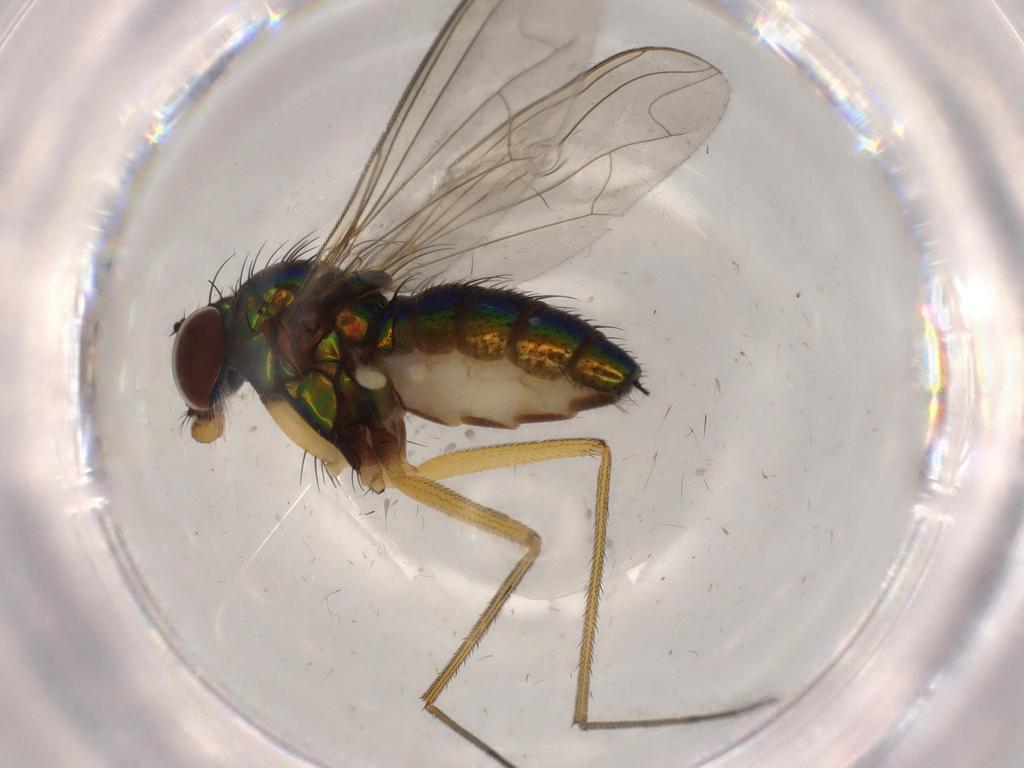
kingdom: Animalia
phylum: Arthropoda
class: Insecta
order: Diptera
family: Dolichopodidae
